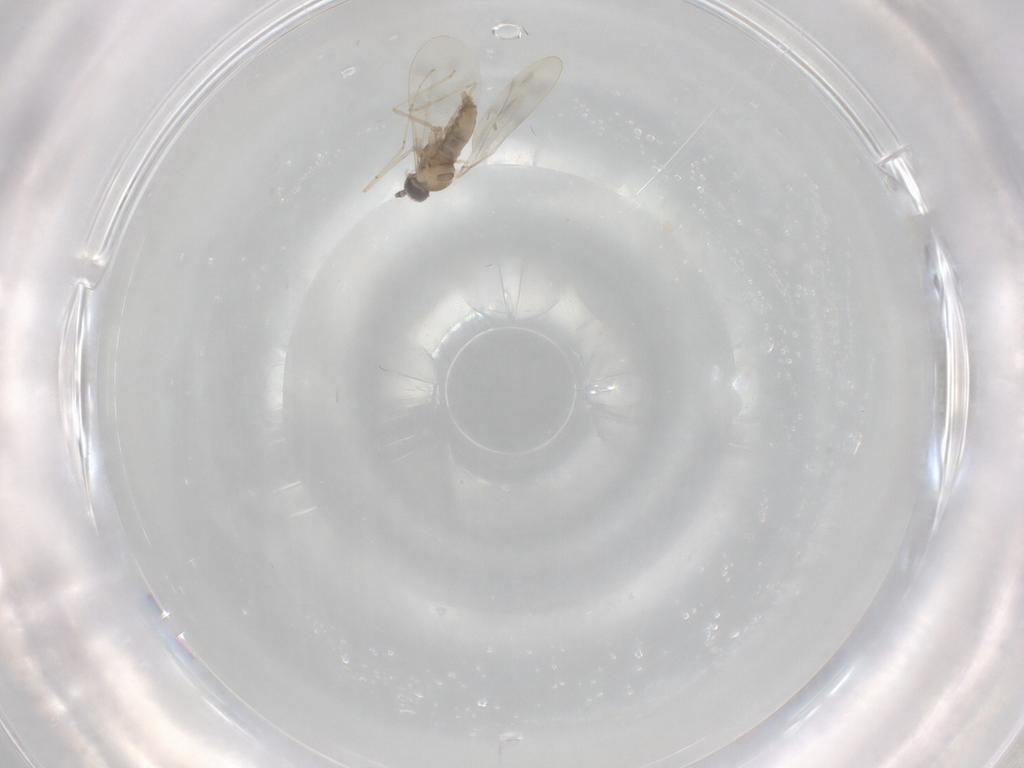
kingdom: Animalia
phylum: Arthropoda
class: Insecta
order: Diptera
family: Cecidomyiidae
